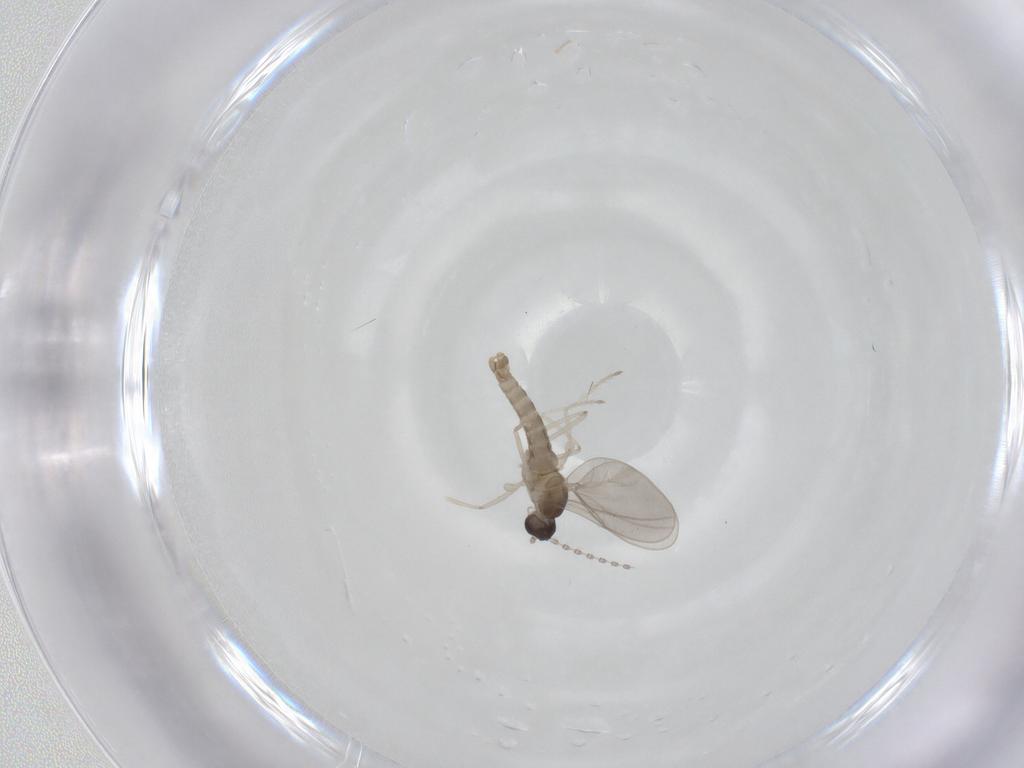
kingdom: Animalia
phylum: Arthropoda
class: Insecta
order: Diptera
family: Cecidomyiidae
